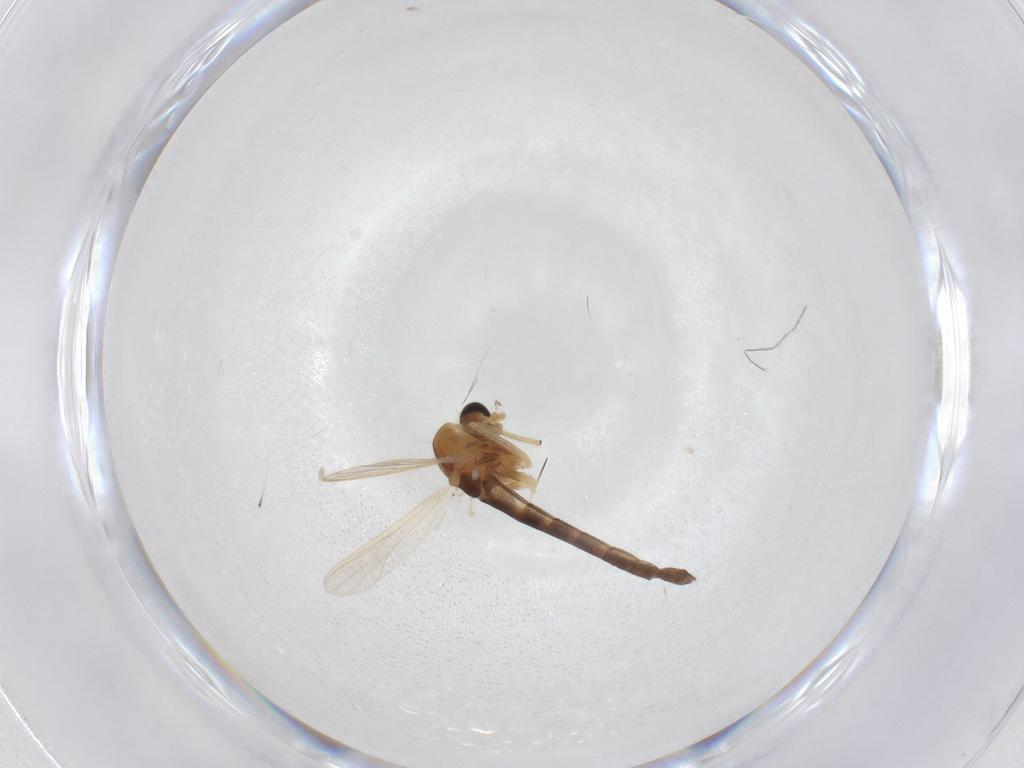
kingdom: Animalia
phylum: Arthropoda
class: Insecta
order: Diptera
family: Chironomidae
